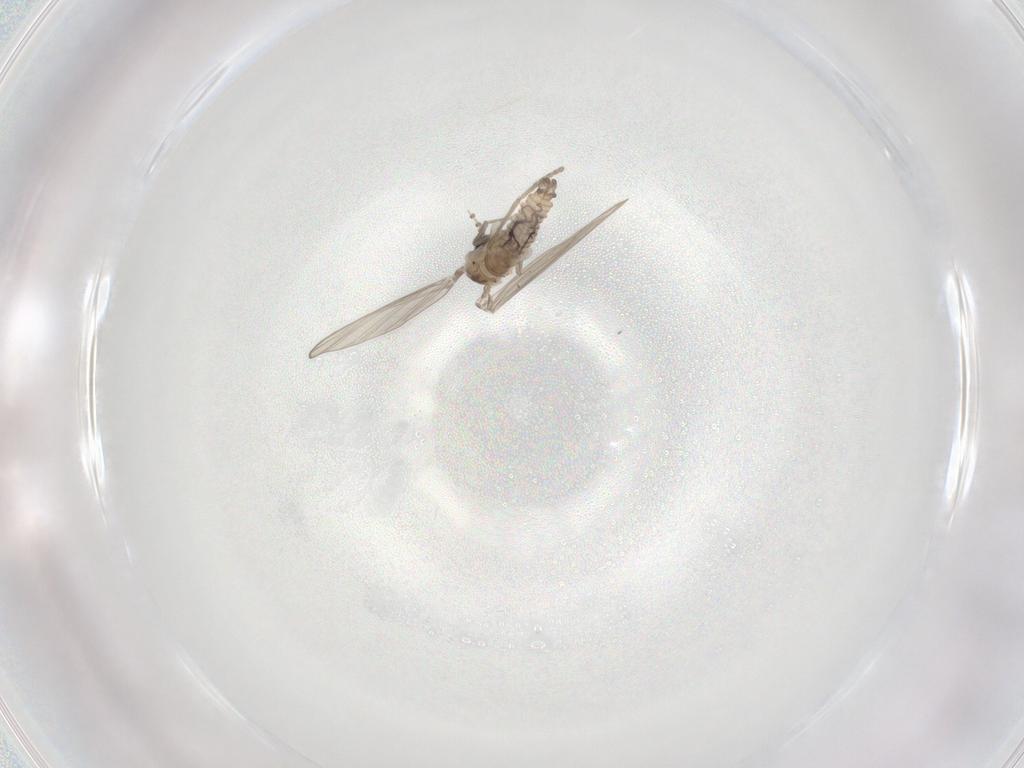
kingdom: Animalia
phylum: Arthropoda
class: Insecta
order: Diptera
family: Psychodidae
